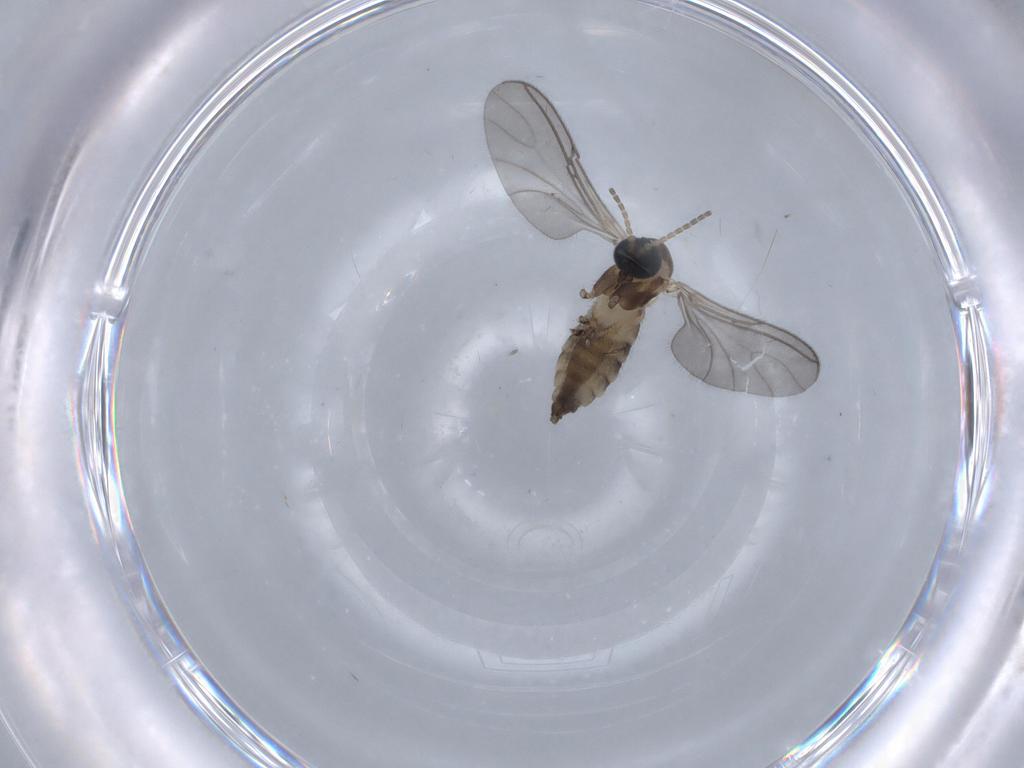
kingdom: Animalia
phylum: Arthropoda
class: Insecta
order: Diptera
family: Sciaridae
